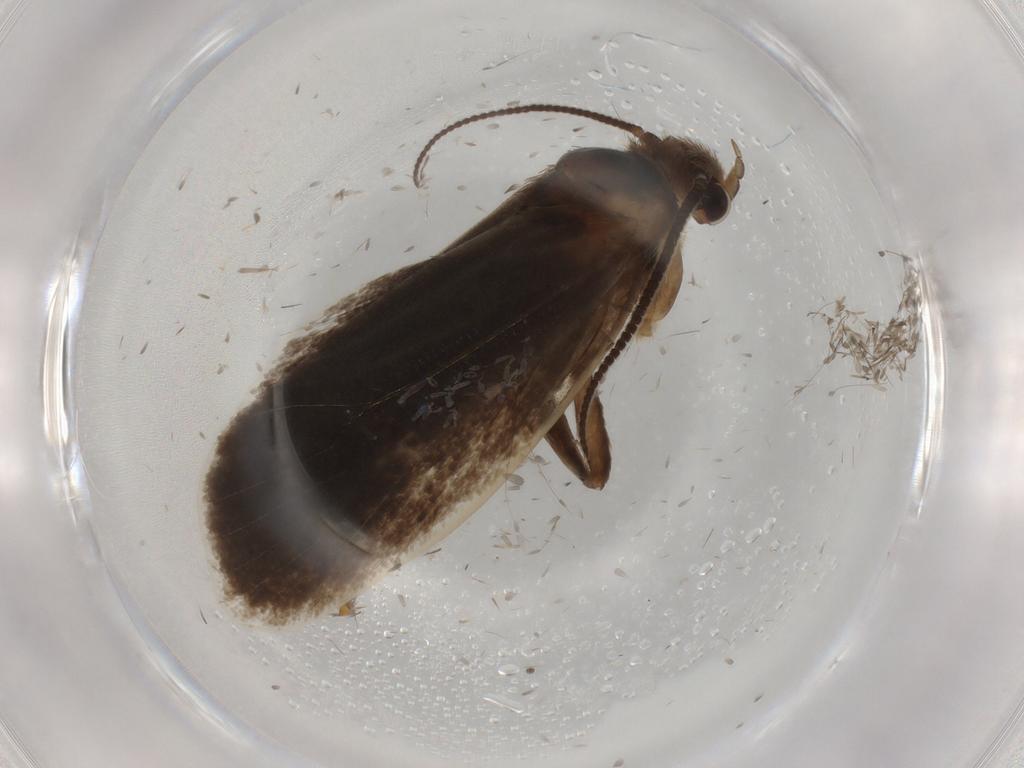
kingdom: Animalia
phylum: Arthropoda
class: Insecta
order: Lepidoptera
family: Tineidae
